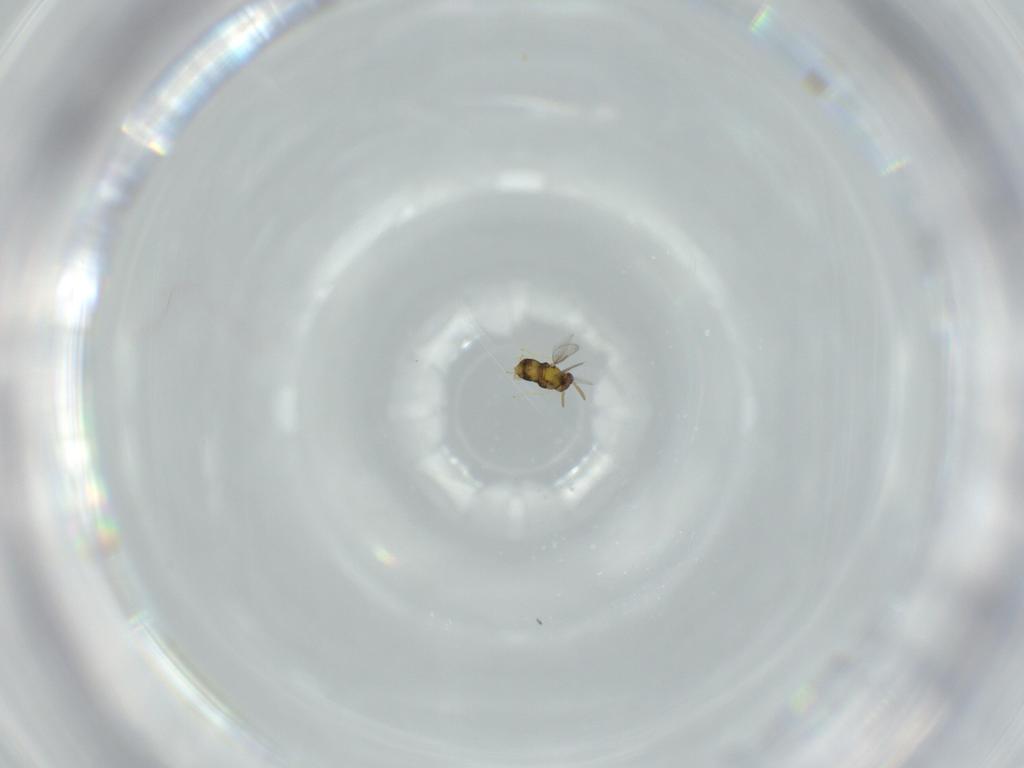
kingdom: Animalia
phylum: Arthropoda
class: Insecta
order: Hymenoptera
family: Aphelinidae
